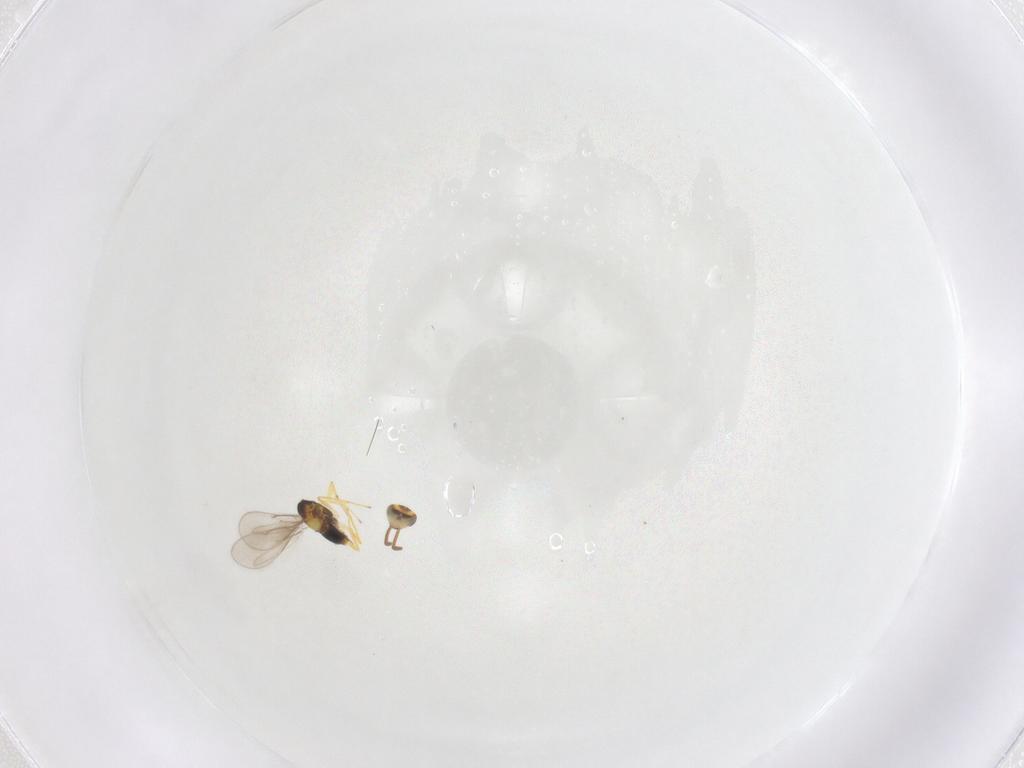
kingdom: Animalia
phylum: Arthropoda
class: Insecta
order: Hymenoptera
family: Aphelinidae
